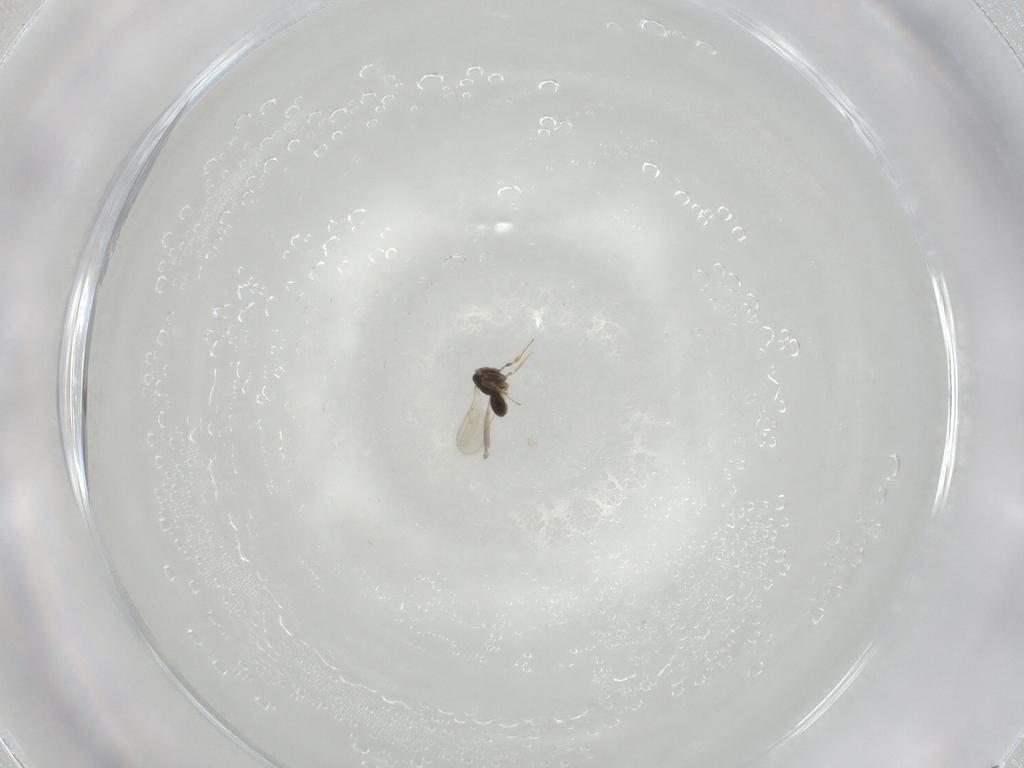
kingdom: Animalia
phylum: Arthropoda
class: Insecta
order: Hymenoptera
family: Scelionidae
